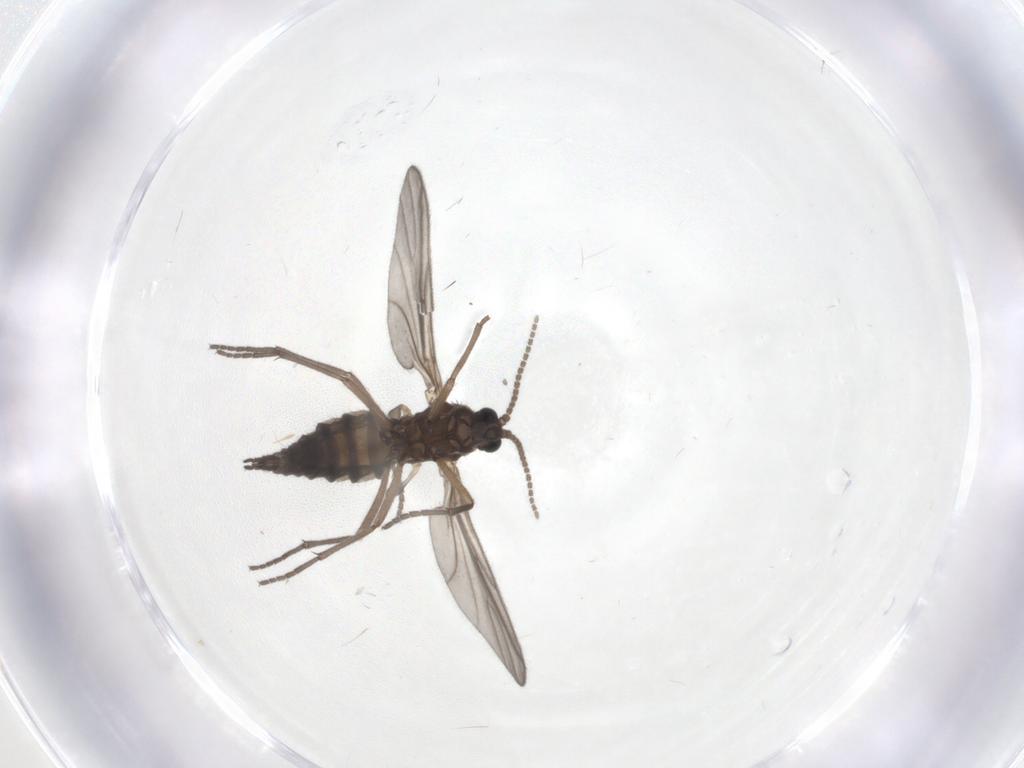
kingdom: Animalia
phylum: Arthropoda
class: Insecta
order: Diptera
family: Sciaridae
